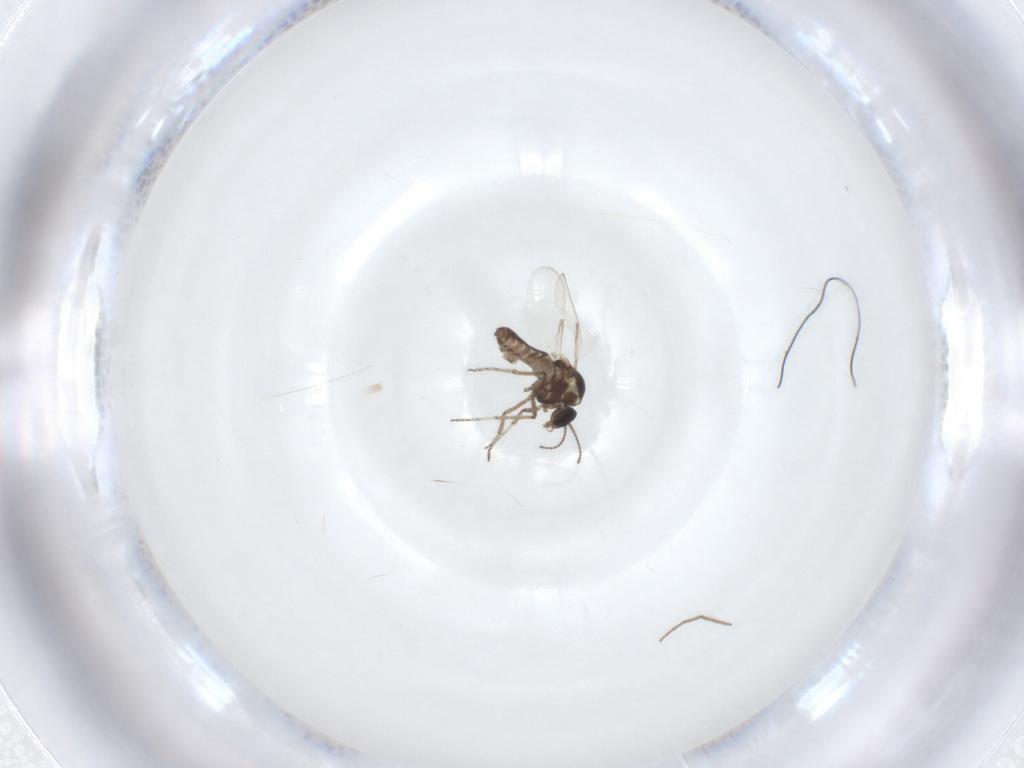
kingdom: Animalia
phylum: Arthropoda
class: Insecta
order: Diptera
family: Ceratopogonidae
